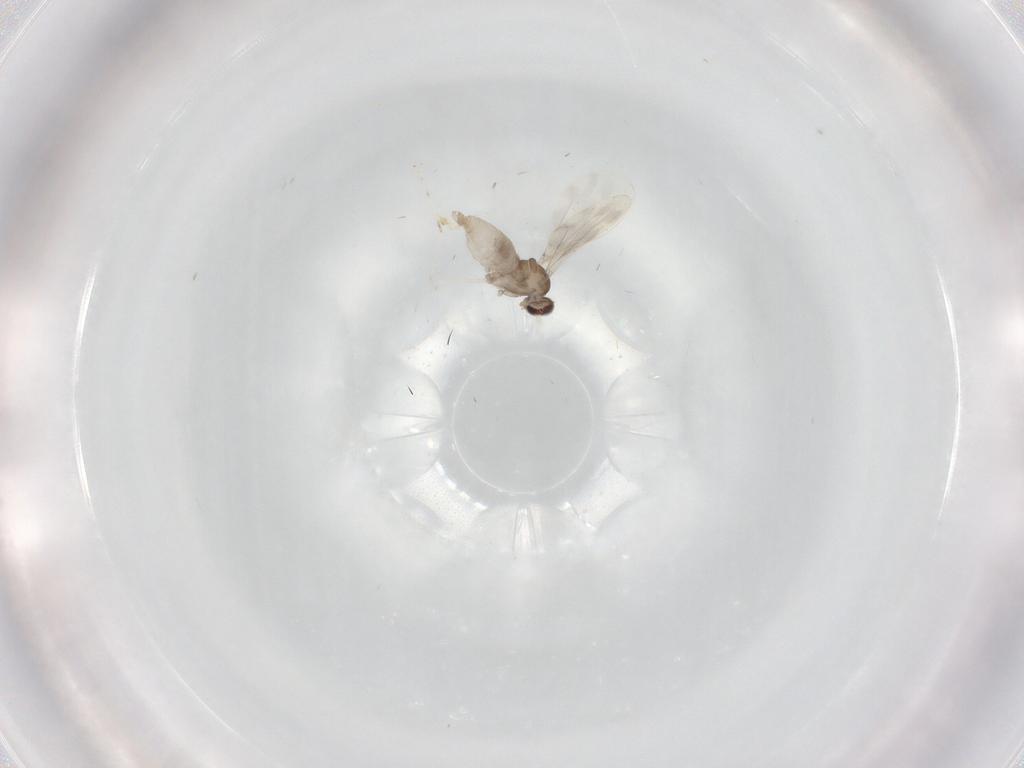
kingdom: Animalia
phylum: Arthropoda
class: Insecta
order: Diptera
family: Cecidomyiidae
